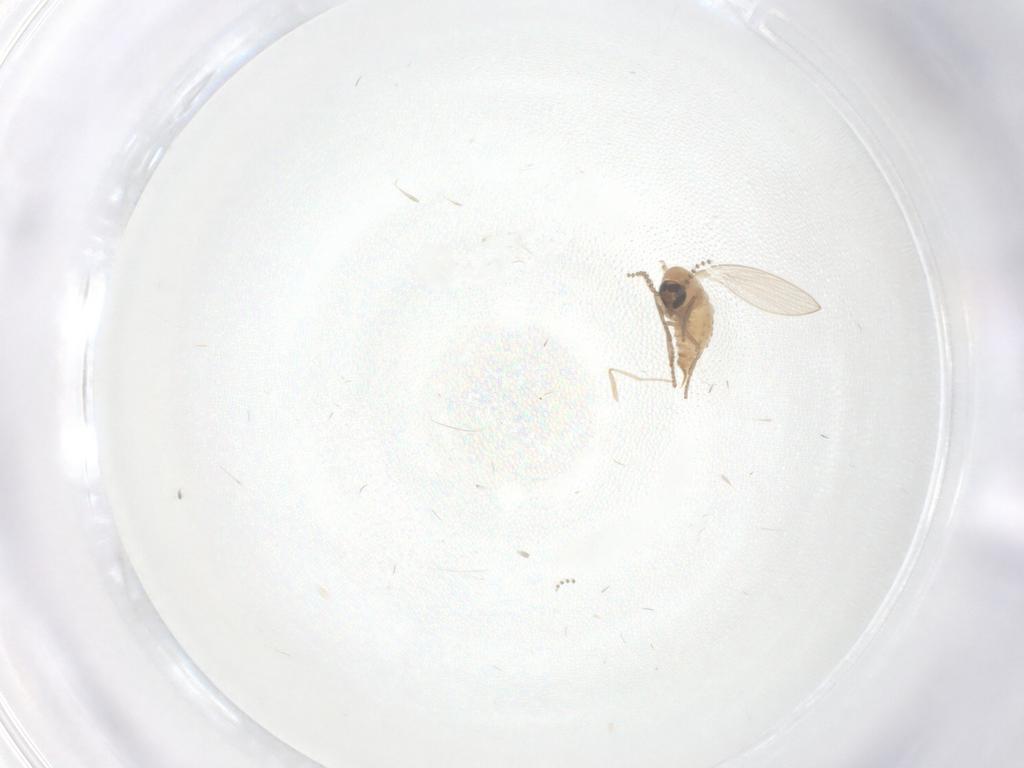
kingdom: Animalia
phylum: Arthropoda
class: Insecta
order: Diptera
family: Cecidomyiidae
